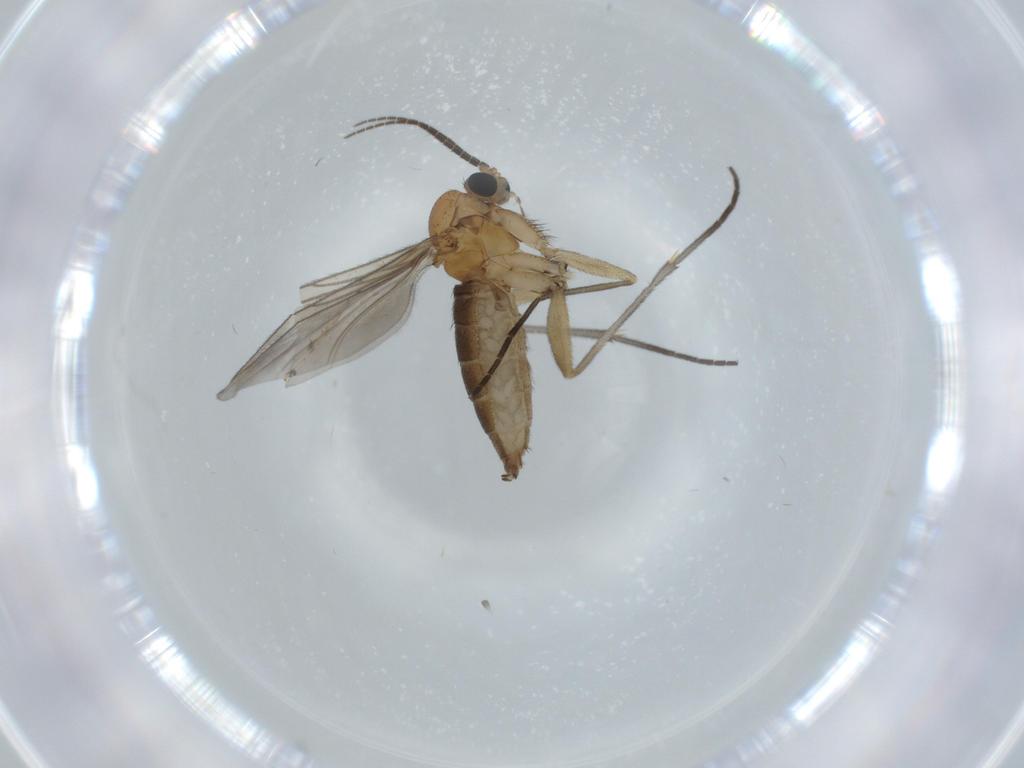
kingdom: Animalia
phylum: Arthropoda
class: Insecta
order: Diptera
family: Sciaridae
